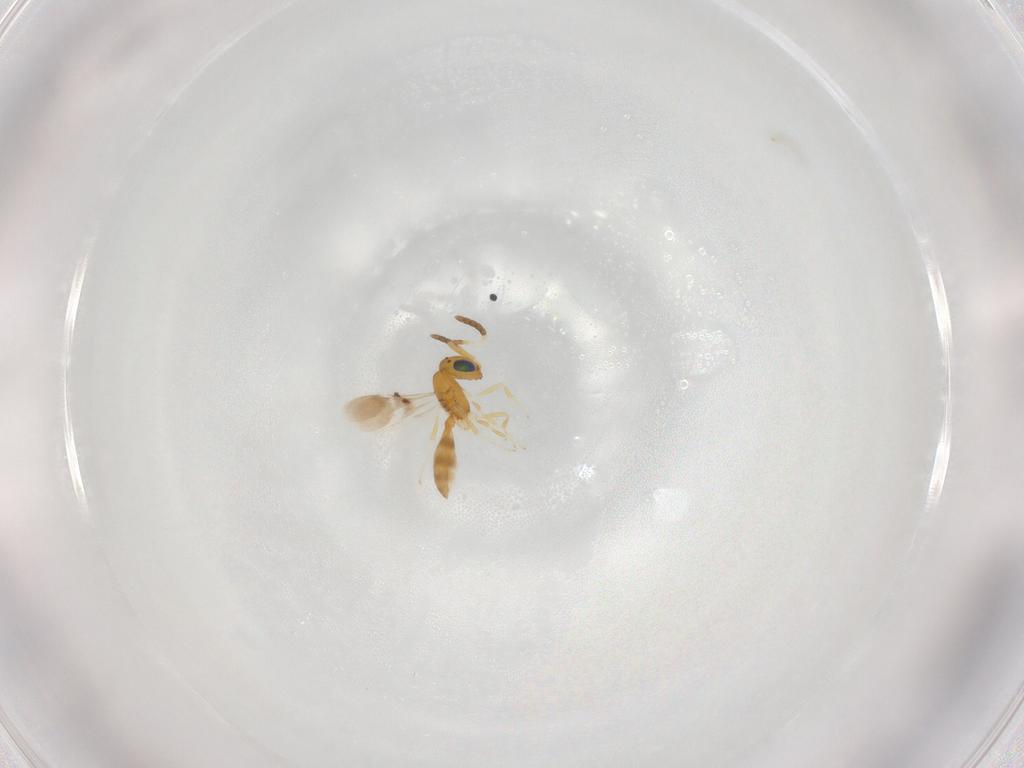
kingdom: Animalia
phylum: Arthropoda
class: Insecta
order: Hymenoptera
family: Scelionidae
